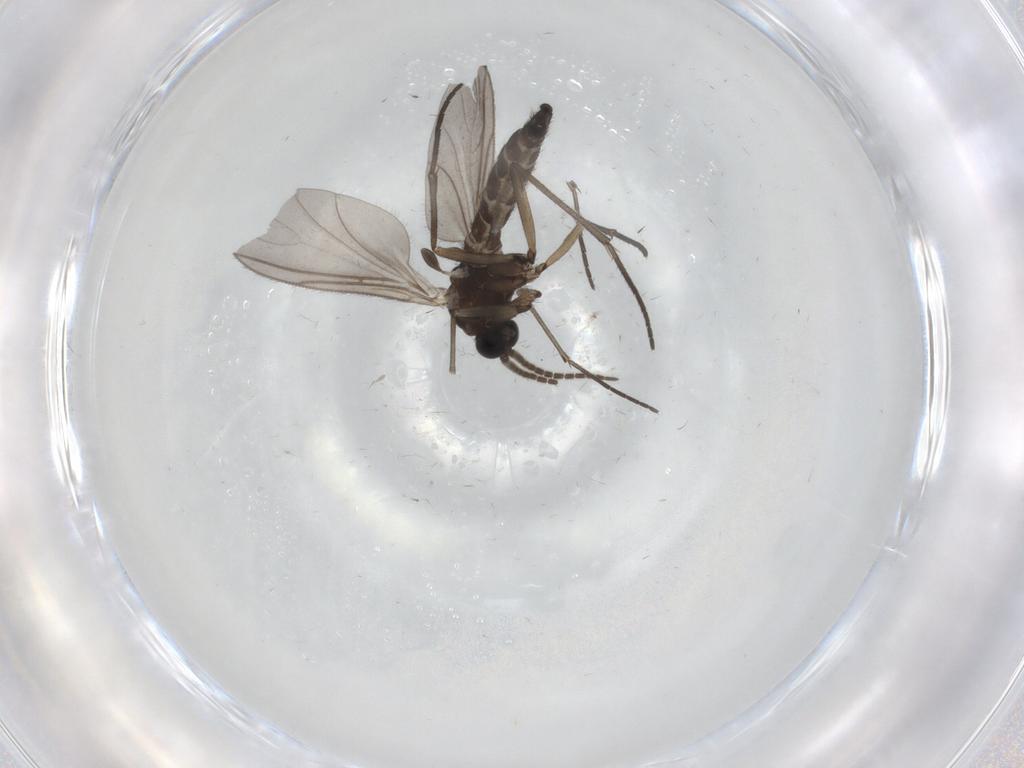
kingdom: Animalia
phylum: Arthropoda
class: Insecta
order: Diptera
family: Sciaridae
